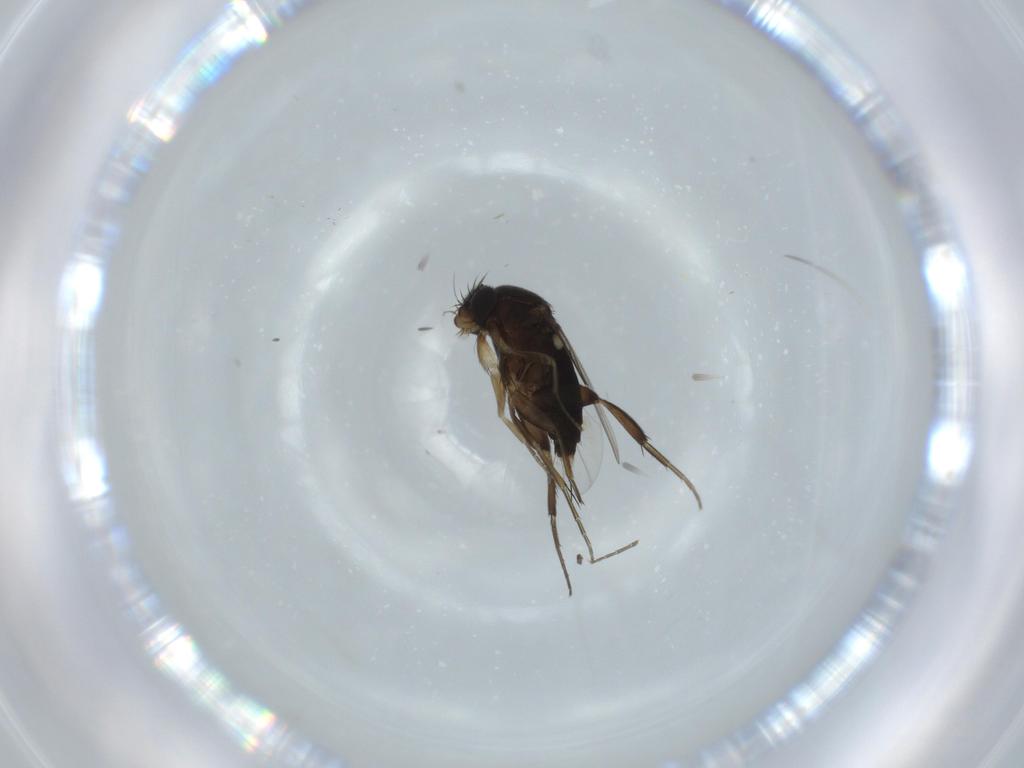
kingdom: Animalia
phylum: Arthropoda
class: Insecta
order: Diptera
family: Phoridae
